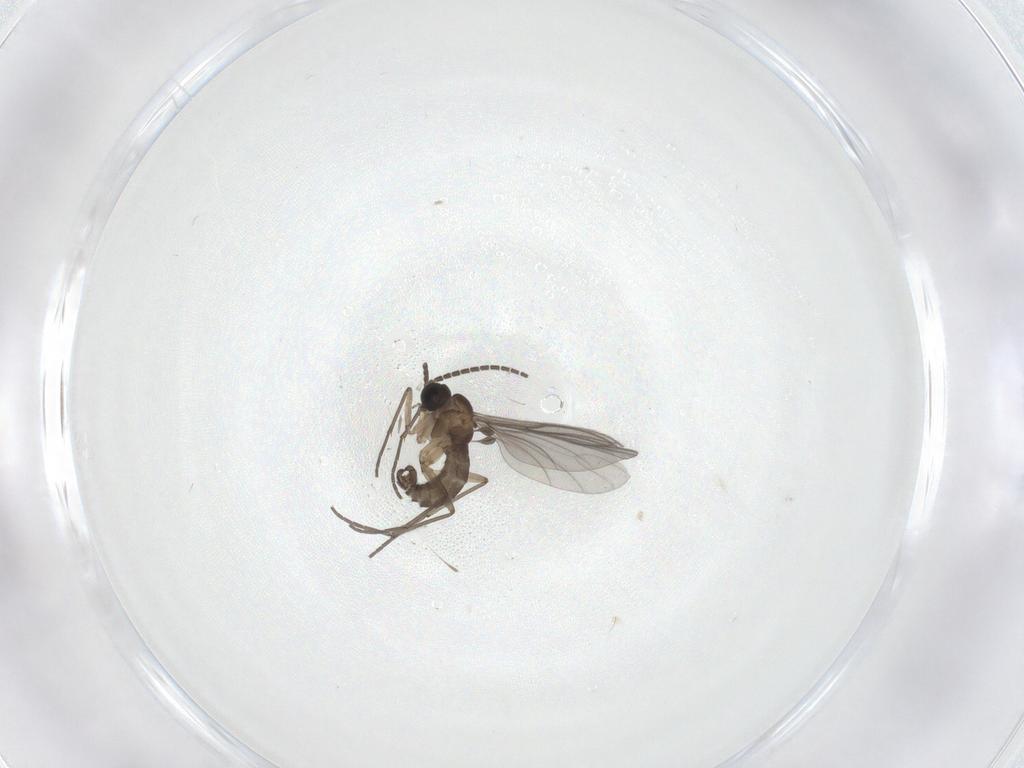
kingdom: Animalia
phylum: Arthropoda
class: Insecta
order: Diptera
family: Sciaridae
